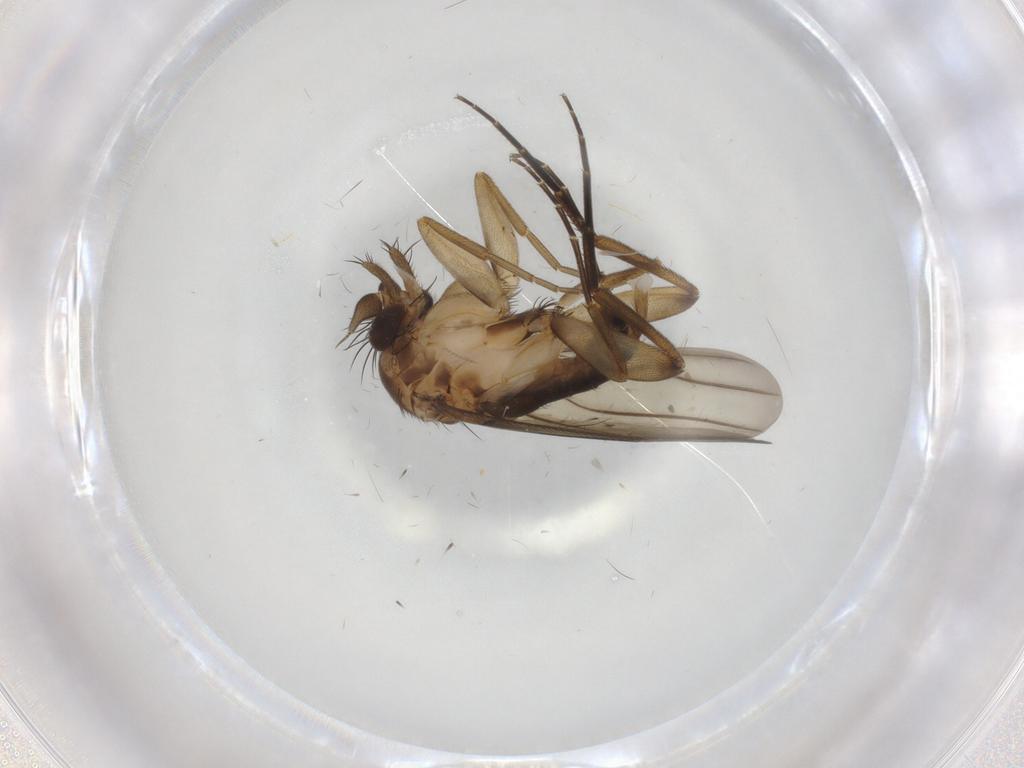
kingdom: Animalia
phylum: Arthropoda
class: Insecta
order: Diptera
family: Phoridae
